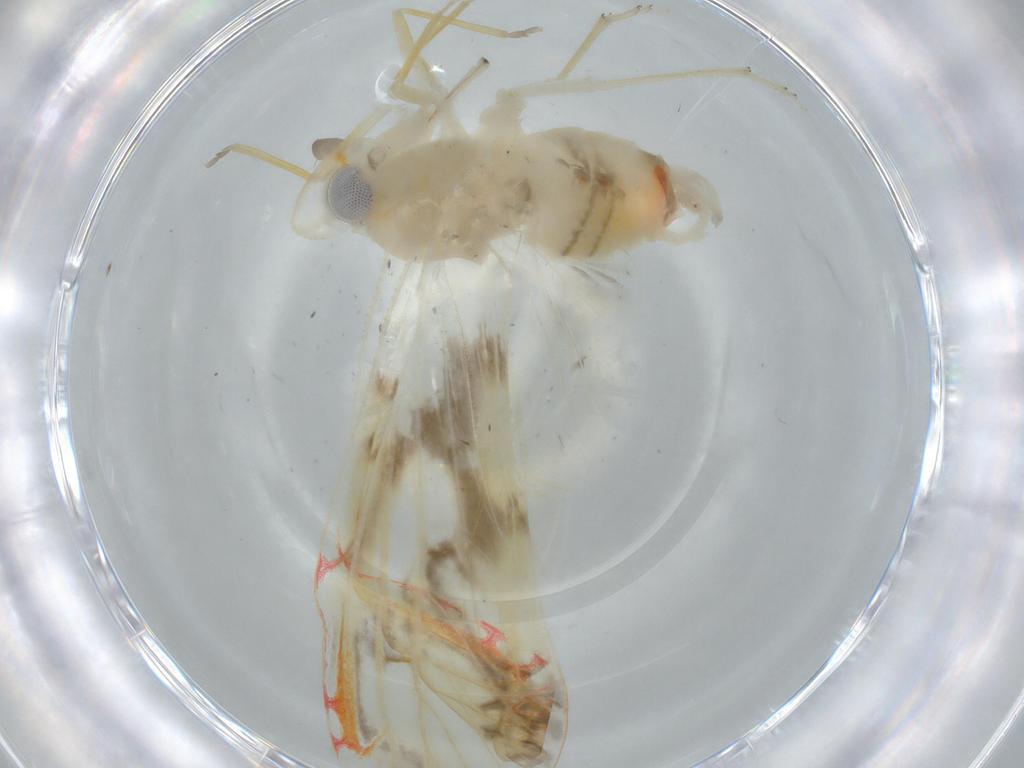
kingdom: Animalia
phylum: Arthropoda
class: Insecta
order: Hemiptera
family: Derbidae
